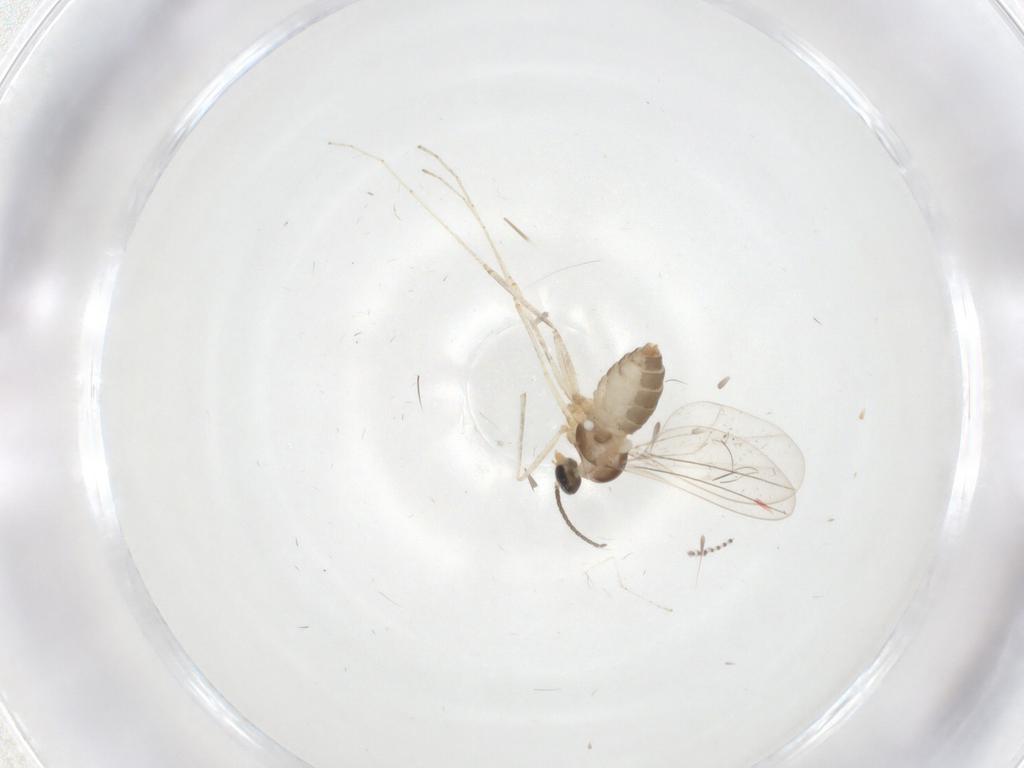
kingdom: Animalia
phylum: Arthropoda
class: Insecta
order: Diptera
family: Cecidomyiidae
